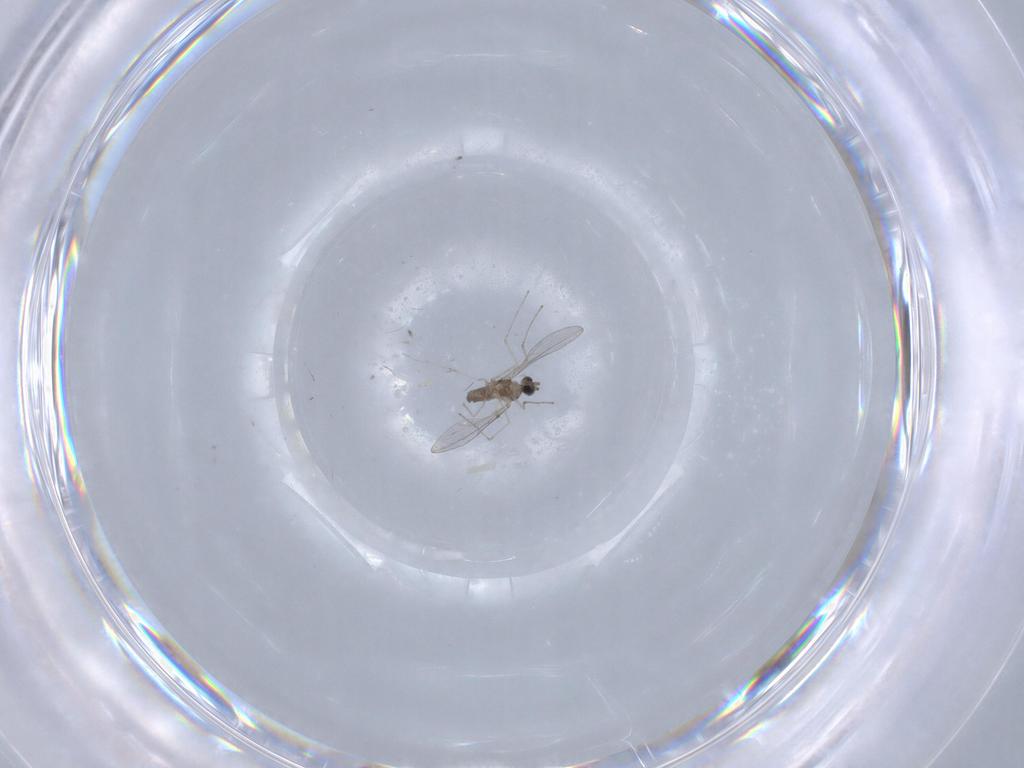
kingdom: Animalia
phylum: Arthropoda
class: Insecta
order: Diptera
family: Cecidomyiidae
